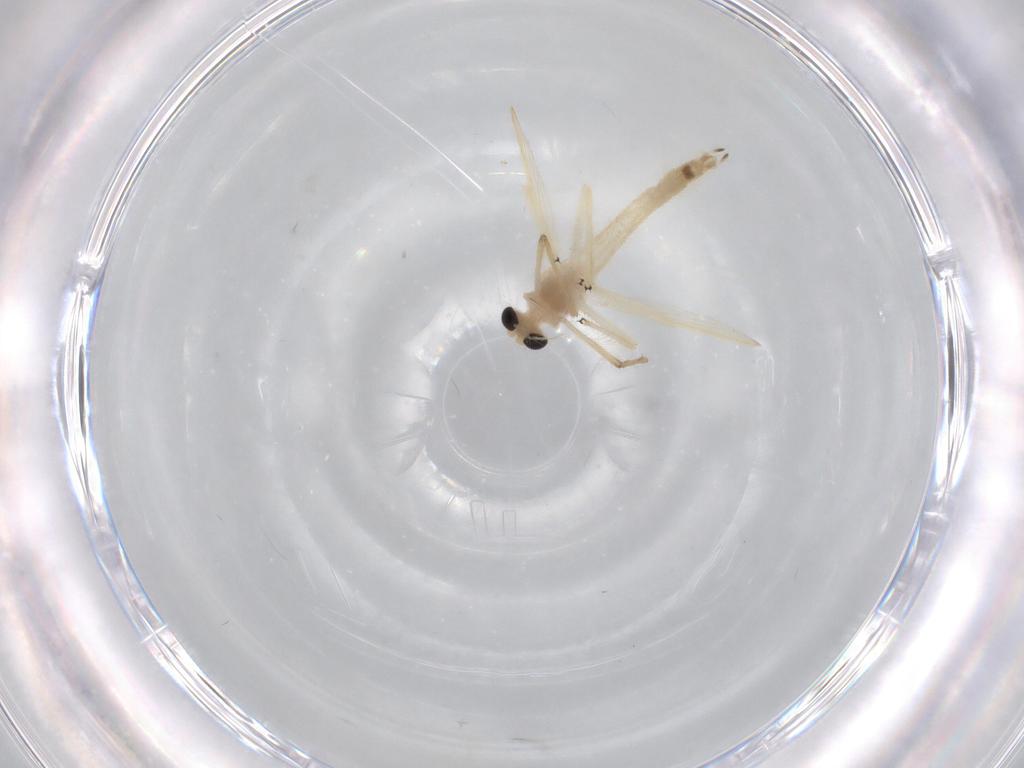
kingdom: Animalia
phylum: Arthropoda
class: Insecta
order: Diptera
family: Chironomidae
